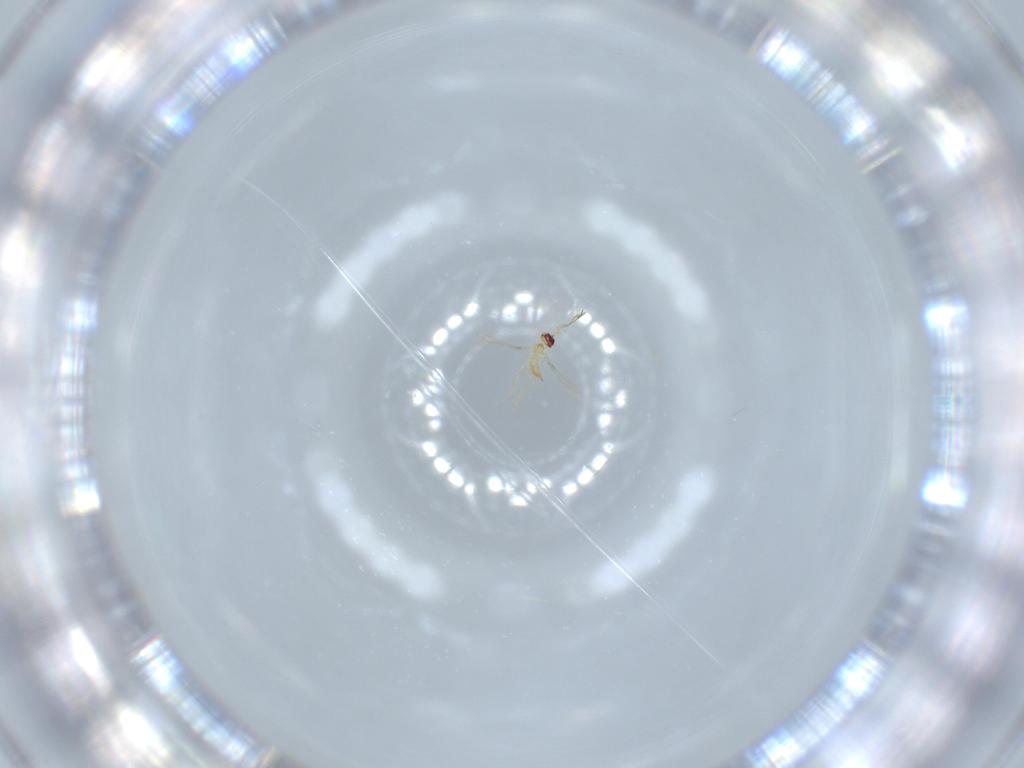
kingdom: Animalia
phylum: Arthropoda
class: Insecta
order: Hymenoptera
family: Mymaridae
